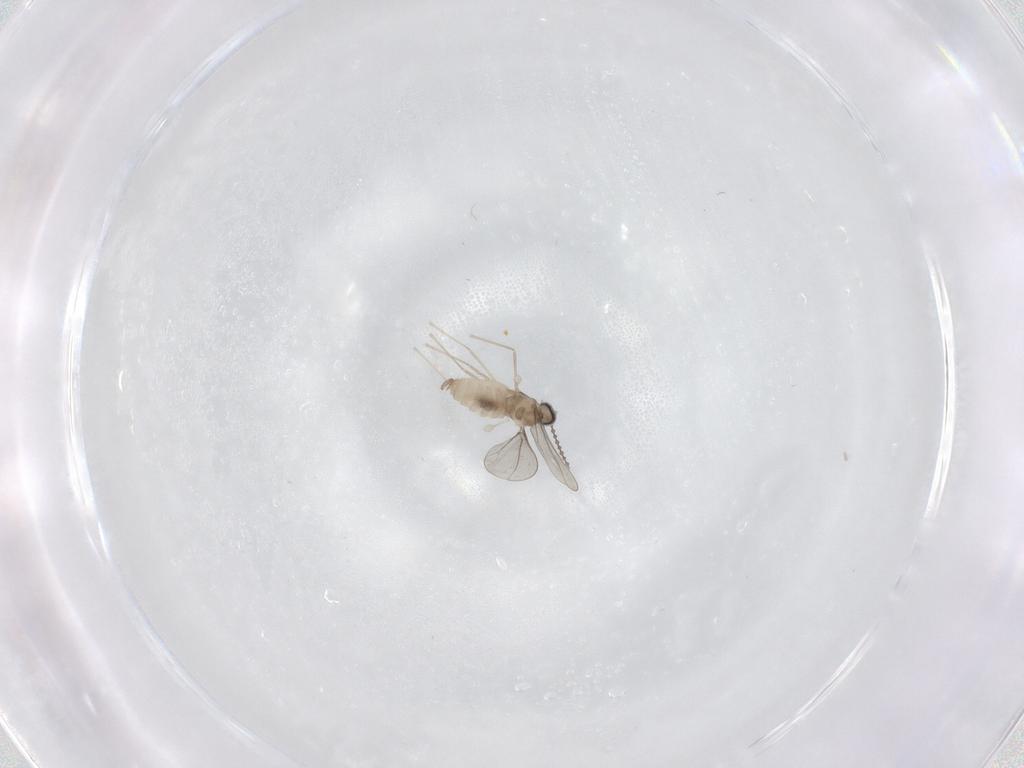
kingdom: Animalia
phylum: Arthropoda
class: Insecta
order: Diptera
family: Cecidomyiidae
